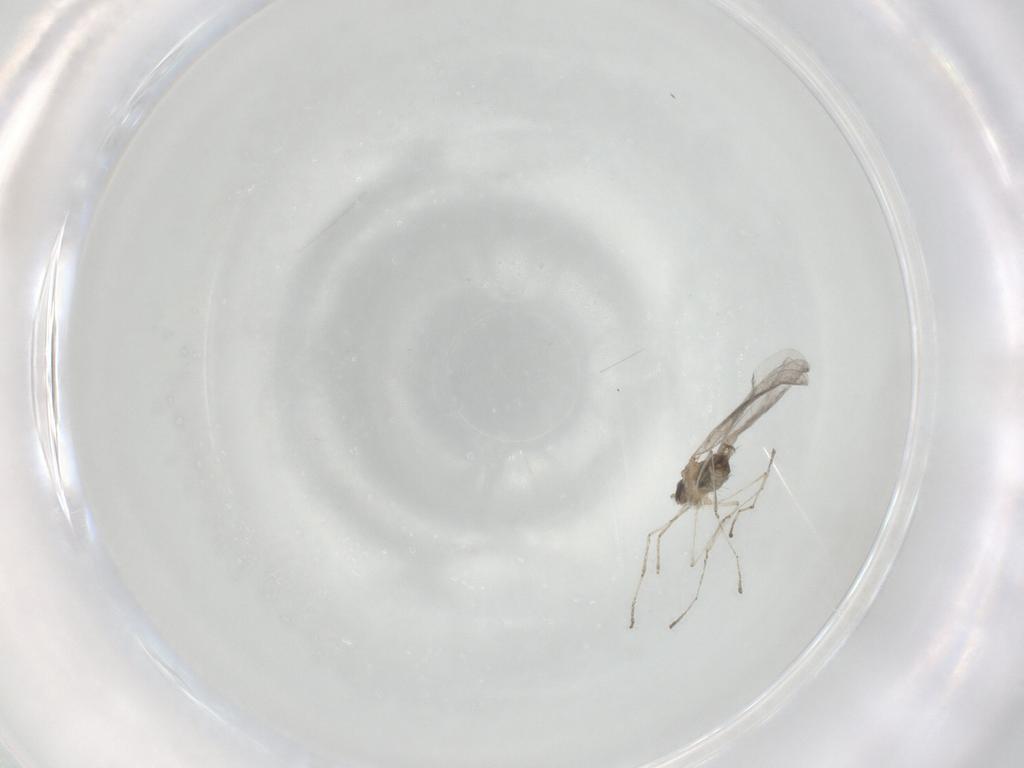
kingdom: Animalia
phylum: Arthropoda
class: Insecta
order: Diptera
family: Cecidomyiidae
